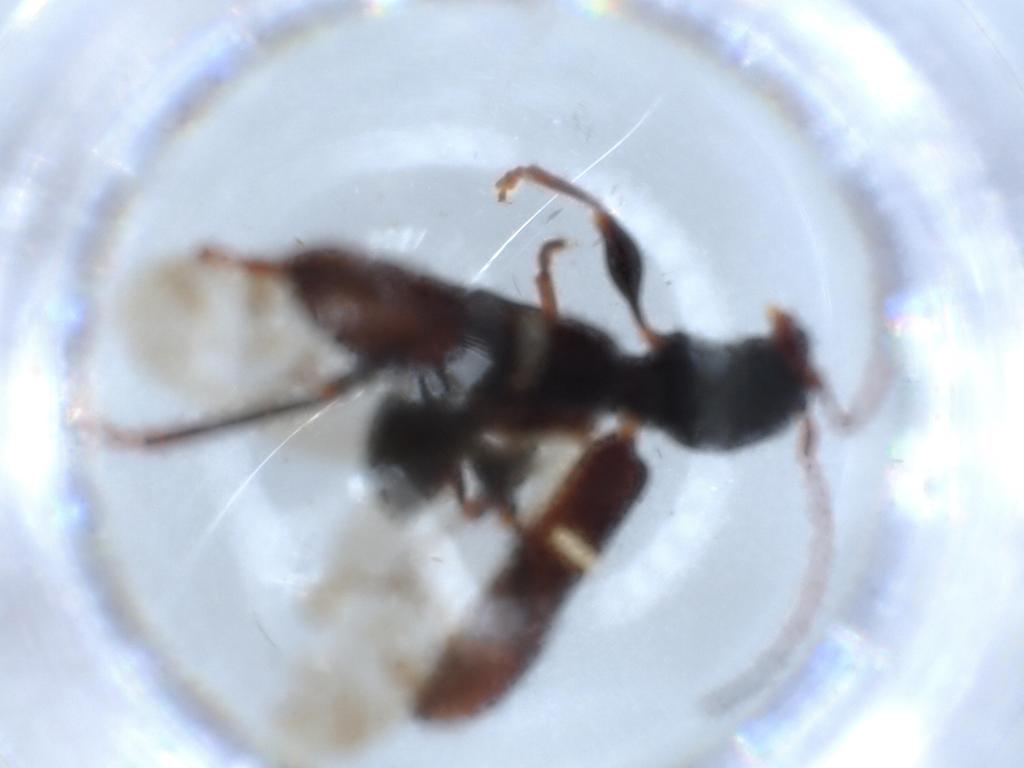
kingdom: Animalia
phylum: Arthropoda
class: Insecta
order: Coleoptera
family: Cerambycidae
